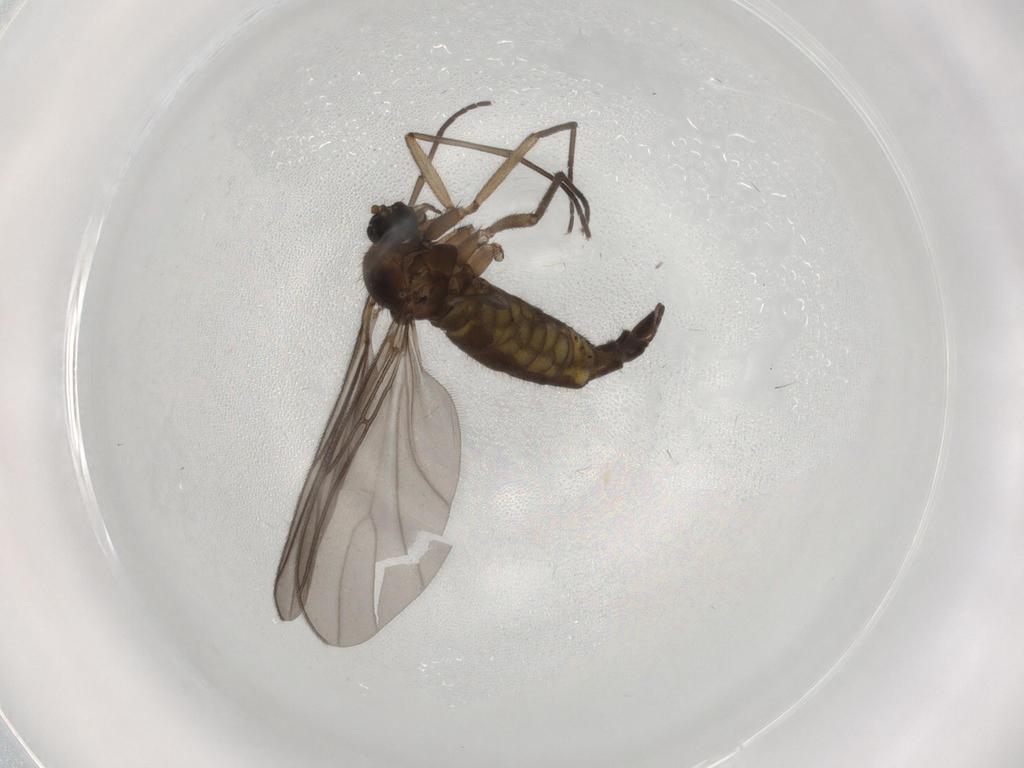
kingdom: Animalia
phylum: Arthropoda
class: Insecta
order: Diptera
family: Sciaridae
